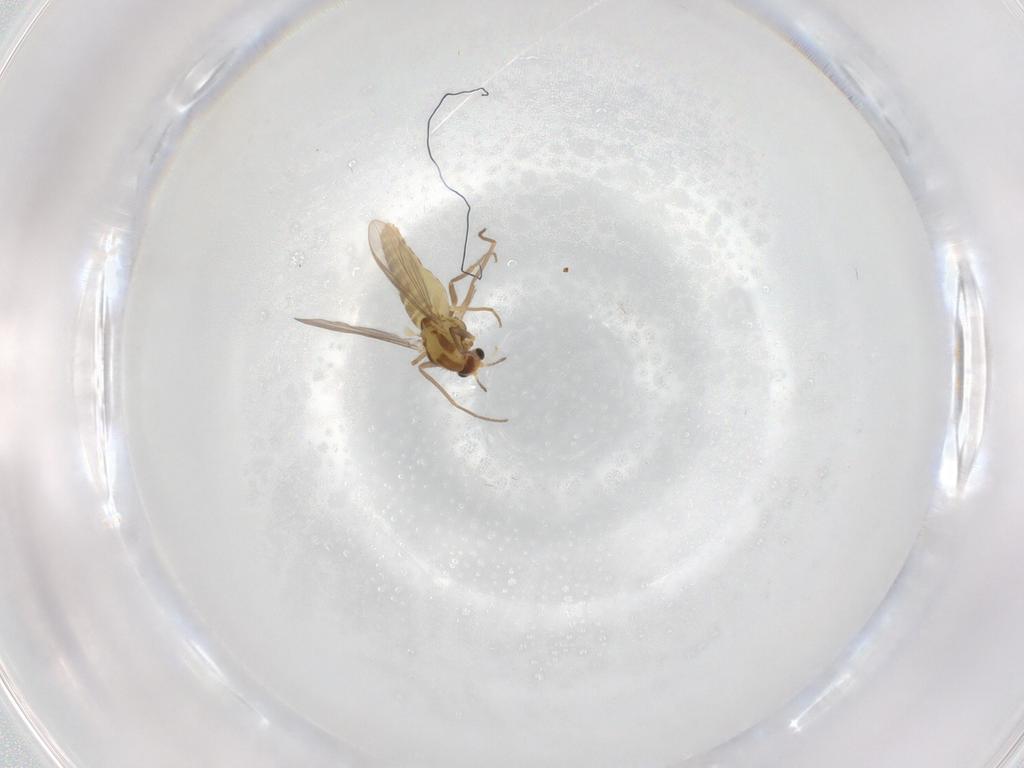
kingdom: Animalia
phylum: Arthropoda
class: Insecta
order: Diptera
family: Chironomidae
